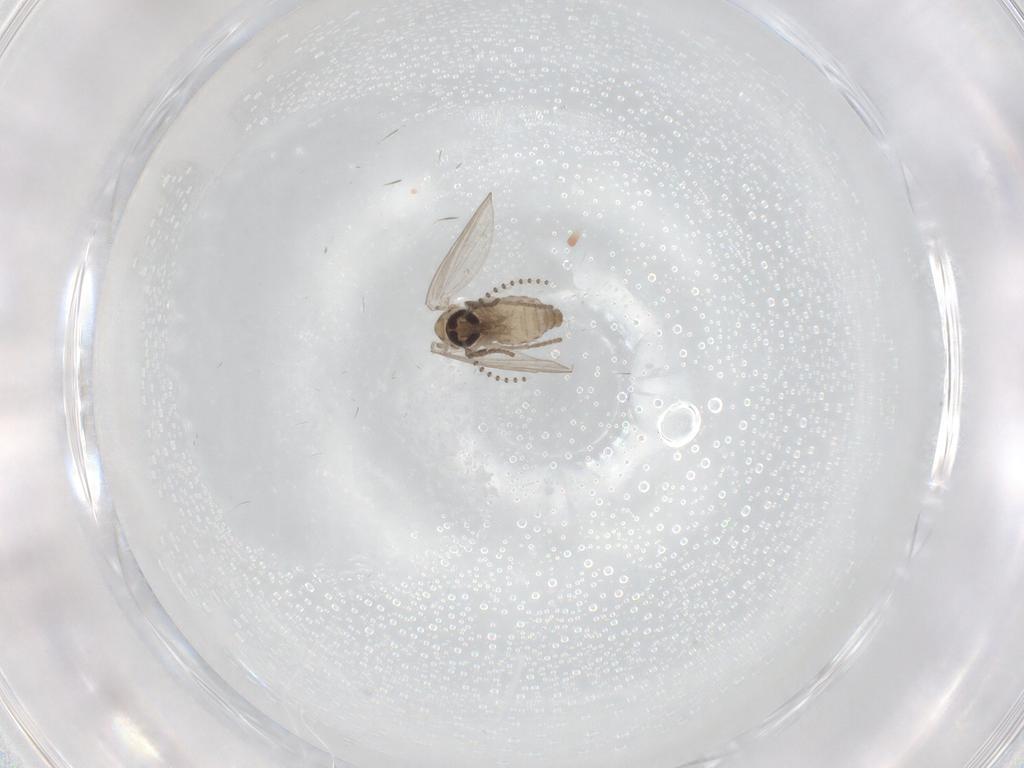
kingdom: Animalia
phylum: Arthropoda
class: Insecta
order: Diptera
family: Psychodidae
